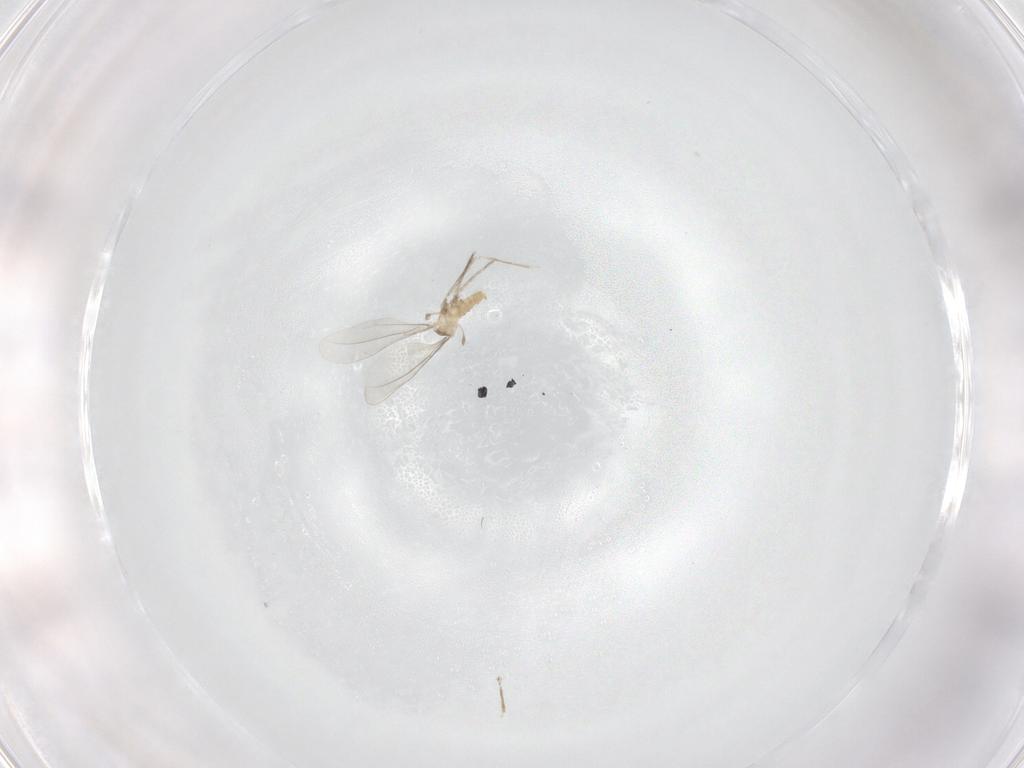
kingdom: Animalia
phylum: Arthropoda
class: Insecta
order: Diptera
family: Cecidomyiidae
